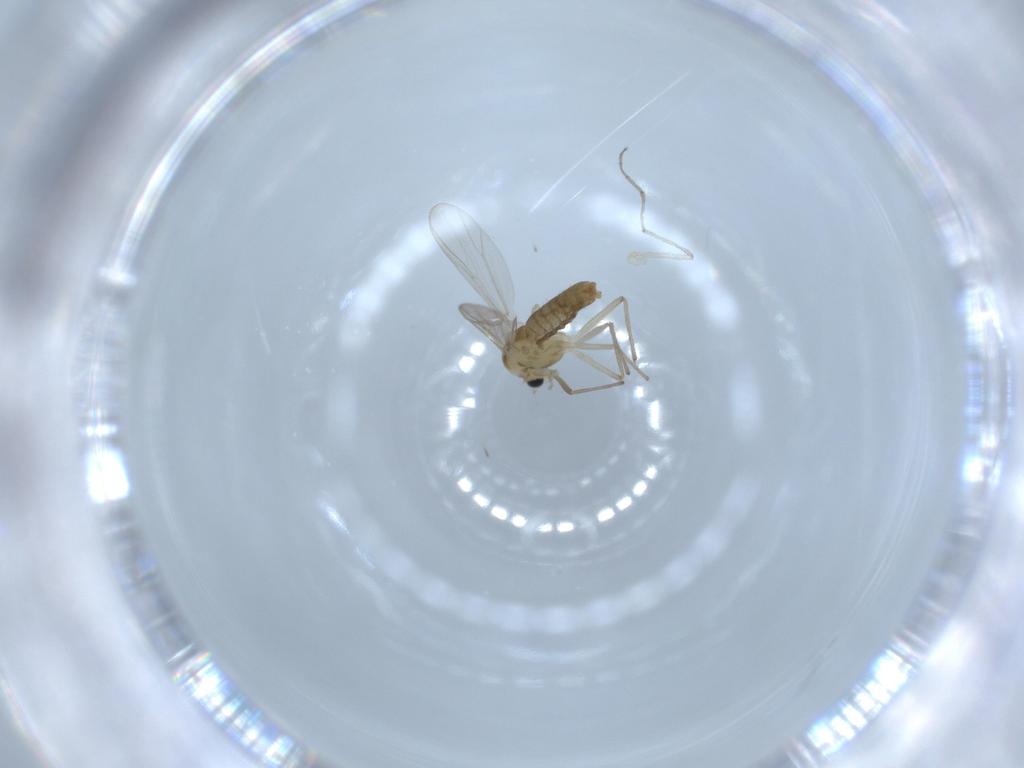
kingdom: Animalia
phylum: Arthropoda
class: Insecta
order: Diptera
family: Chironomidae
